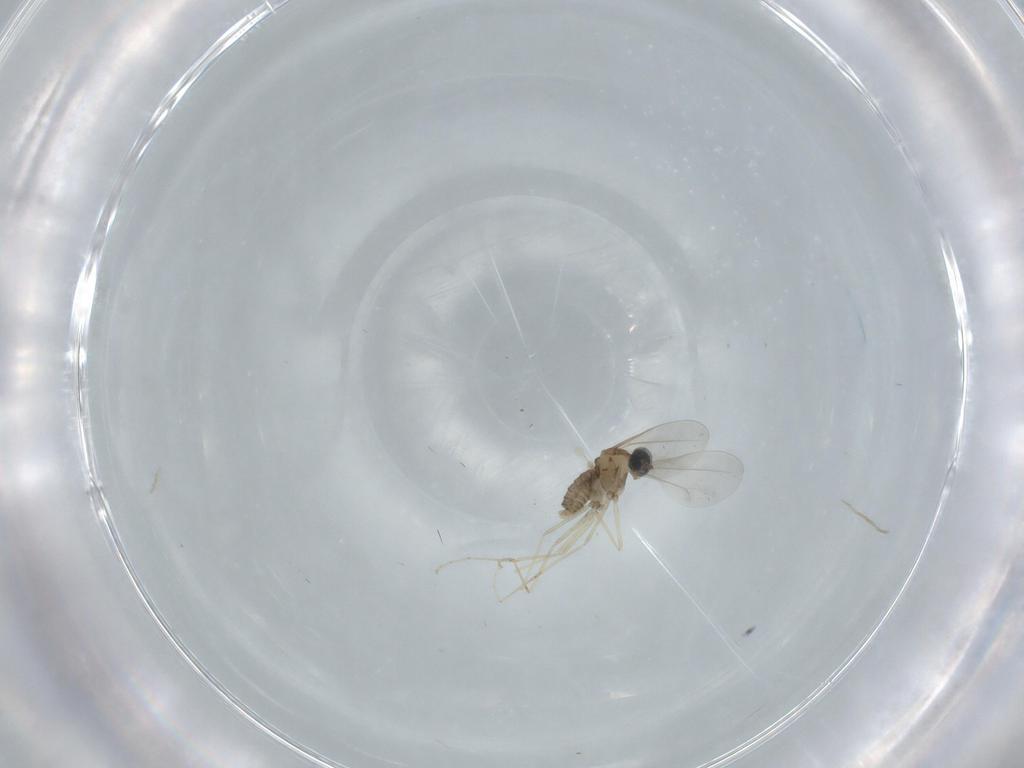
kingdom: Animalia
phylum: Arthropoda
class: Insecta
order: Diptera
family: Cecidomyiidae
